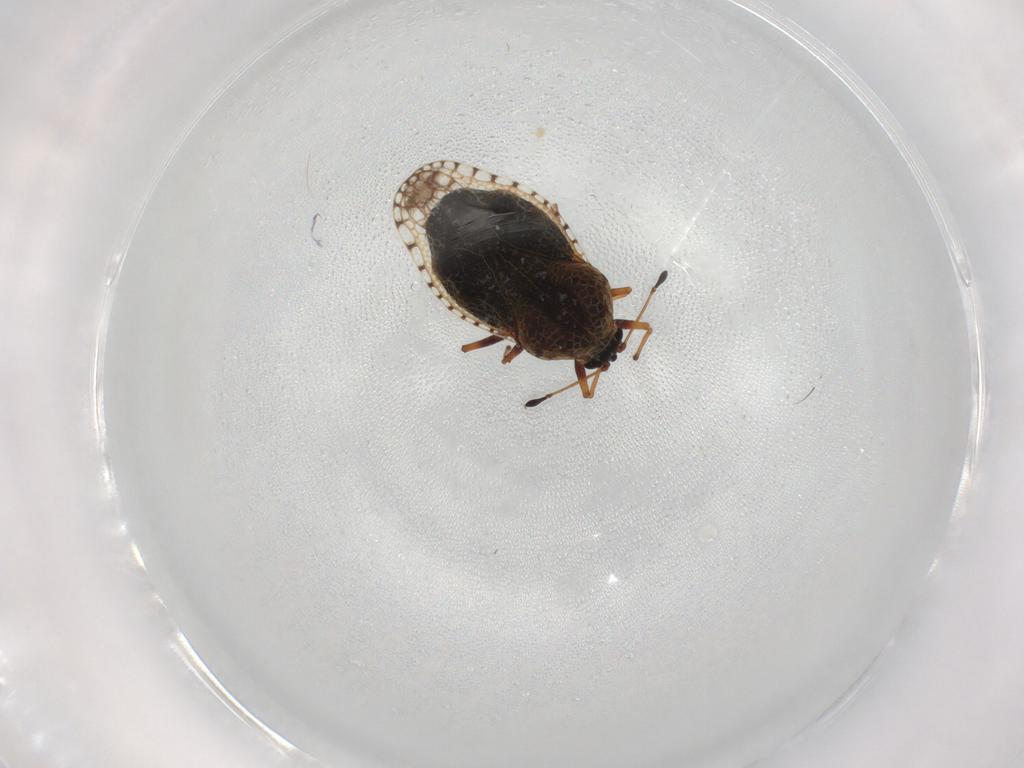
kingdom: Animalia
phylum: Arthropoda
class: Insecta
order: Hemiptera
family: Tingidae
